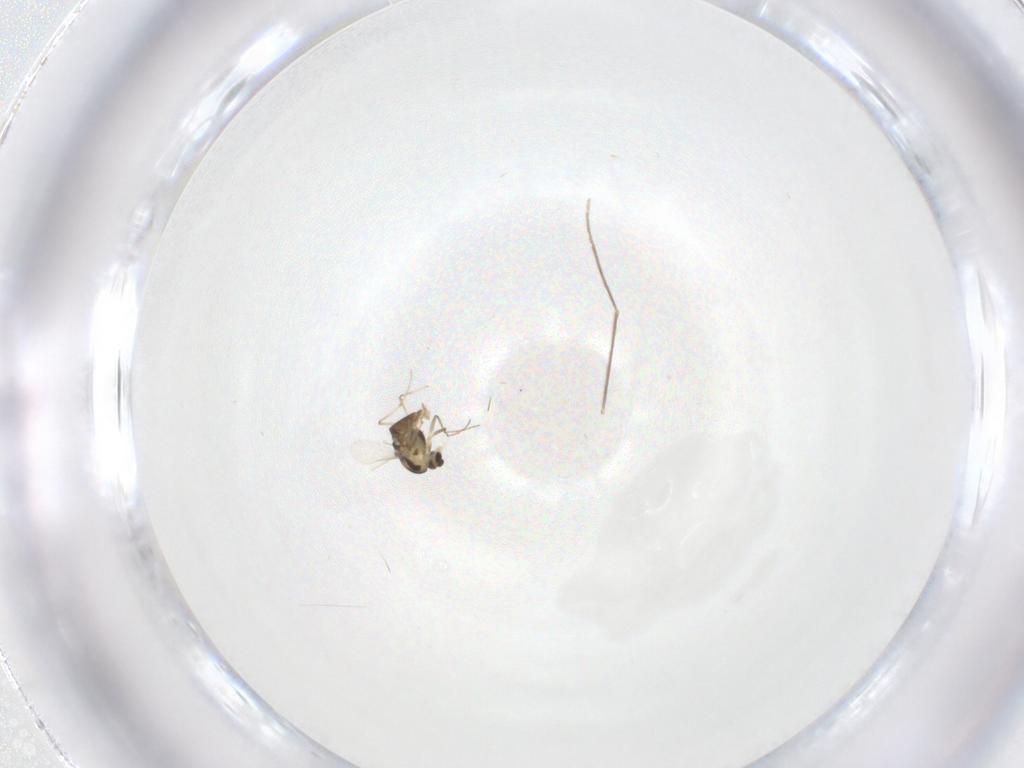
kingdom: Animalia
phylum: Arthropoda
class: Insecta
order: Diptera
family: Chironomidae
